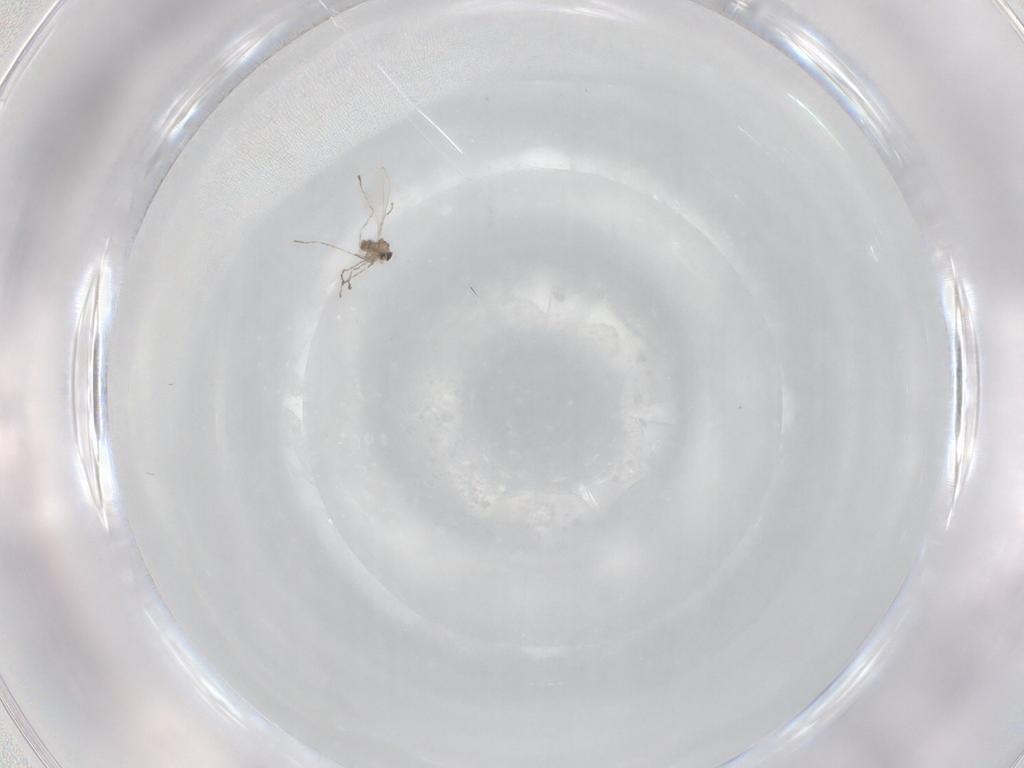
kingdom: Animalia
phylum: Arthropoda
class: Insecta
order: Diptera
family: Cecidomyiidae
